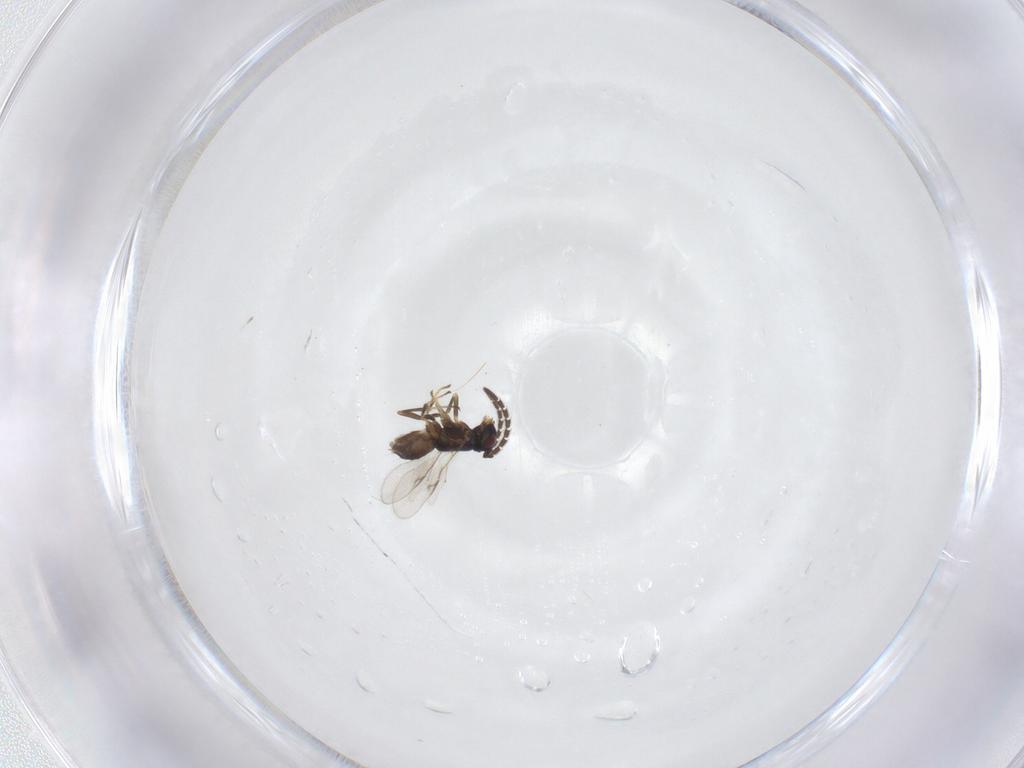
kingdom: Animalia
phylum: Arthropoda
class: Insecta
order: Hymenoptera
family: Encyrtidae
